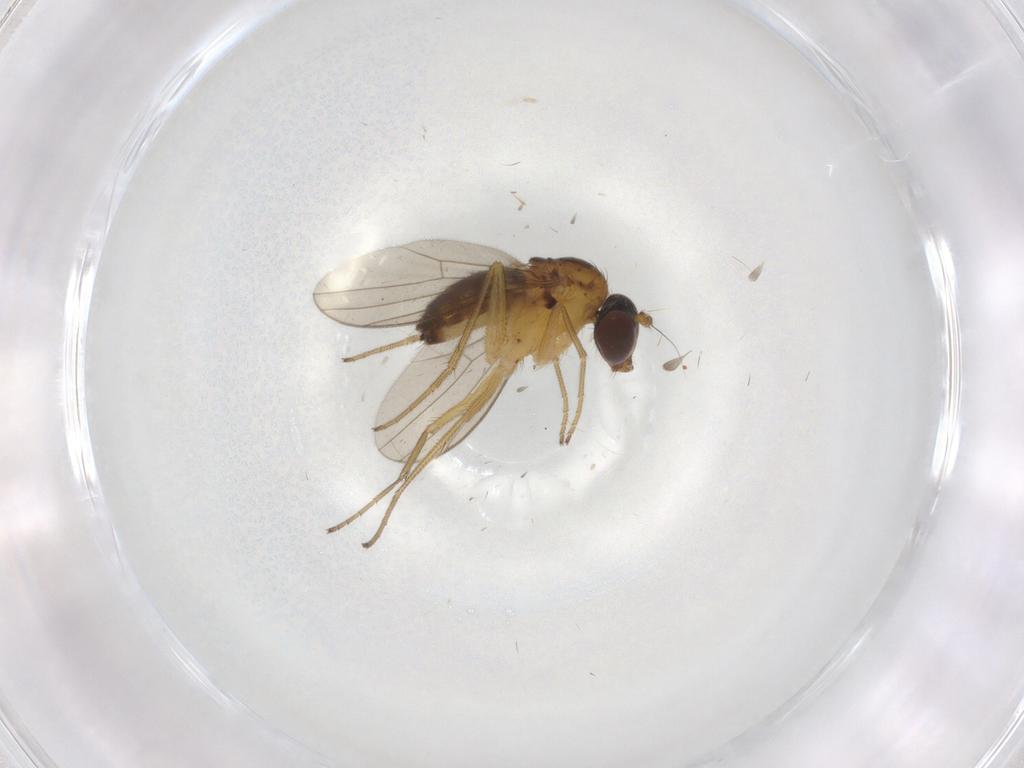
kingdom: Animalia
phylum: Arthropoda
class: Insecta
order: Diptera
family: Dolichopodidae
